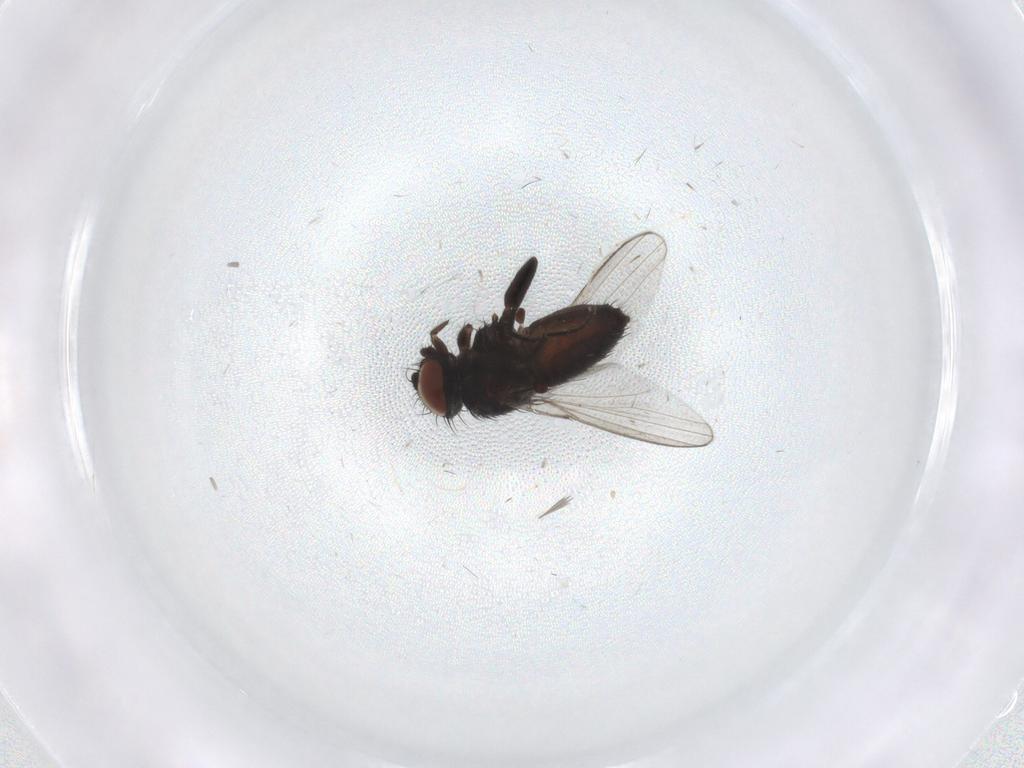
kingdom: Animalia
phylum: Arthropoda
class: Insecta
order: Diptera
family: Milichiidae
